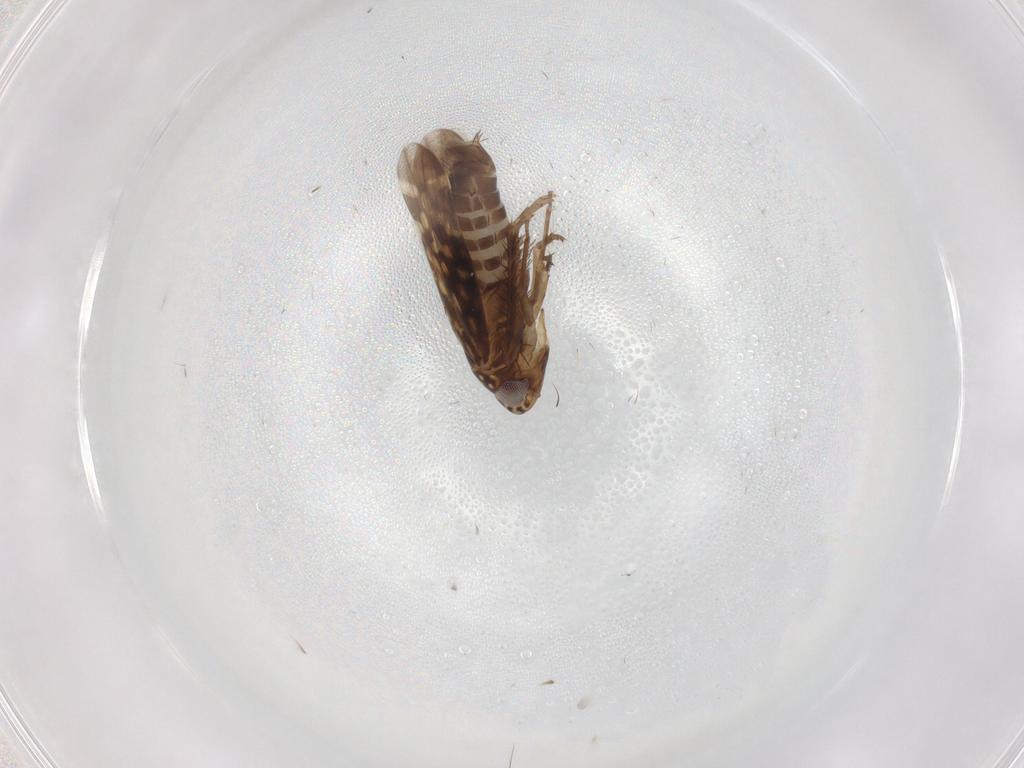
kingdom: Animalia
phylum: Arthropoda
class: Insecta
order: Hemiptera
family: Cicadellidae
